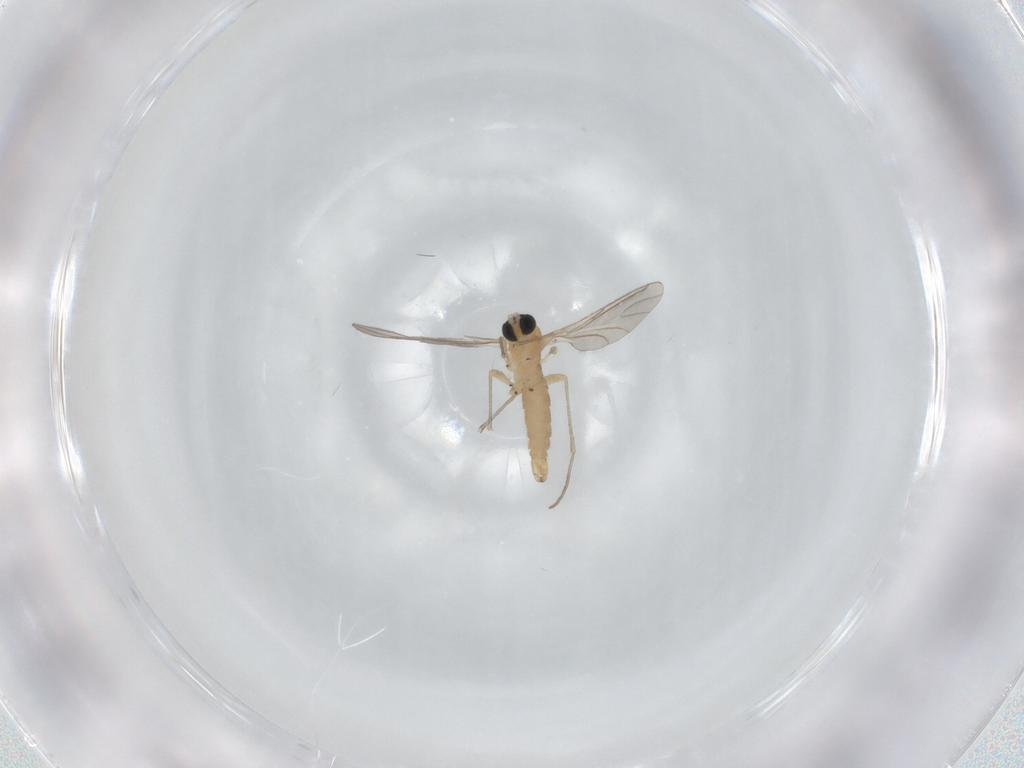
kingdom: Animalia
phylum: Arthropoda
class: Insecta
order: Diptera
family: Sciaridae
